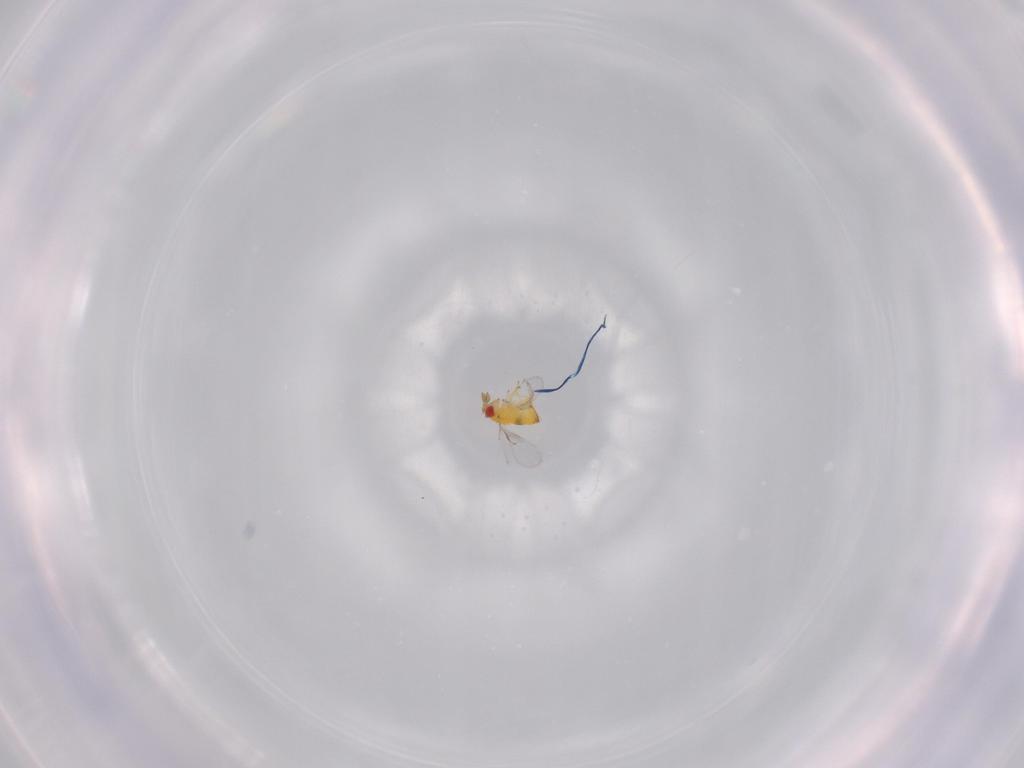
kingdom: Animalia
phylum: Arthropoda
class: Insecta
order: Hymenoptera
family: Trichogrammatidae
